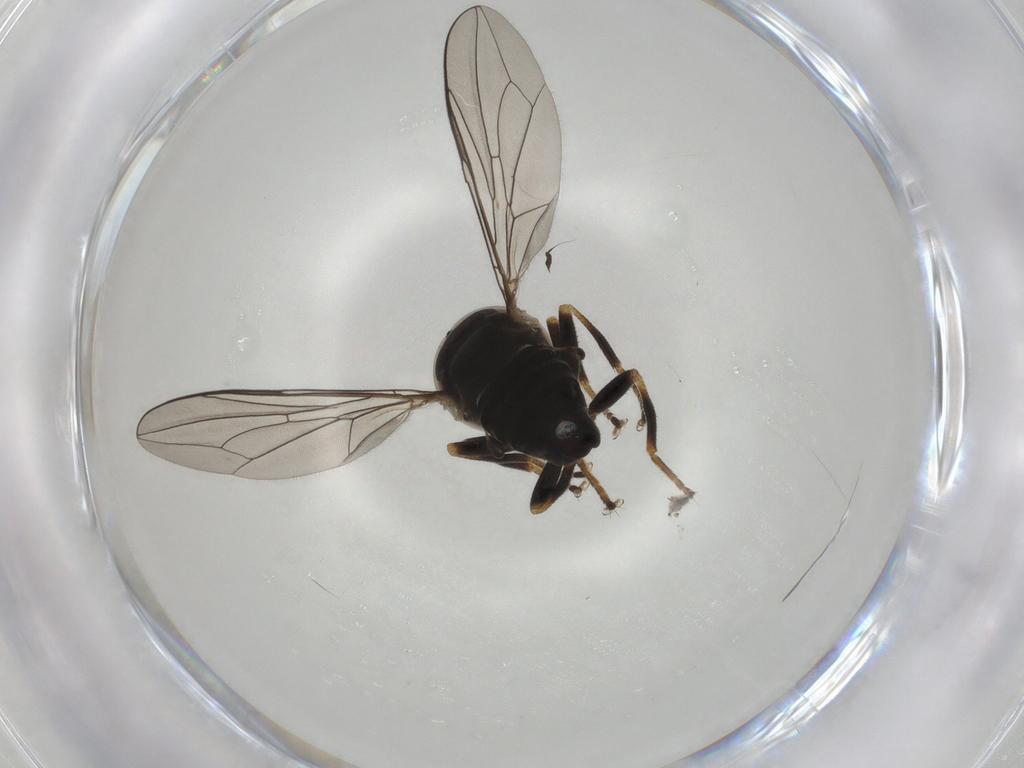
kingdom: Animalia
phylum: Arthropoda
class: Insecta
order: Diptera
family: Pipunculidae
